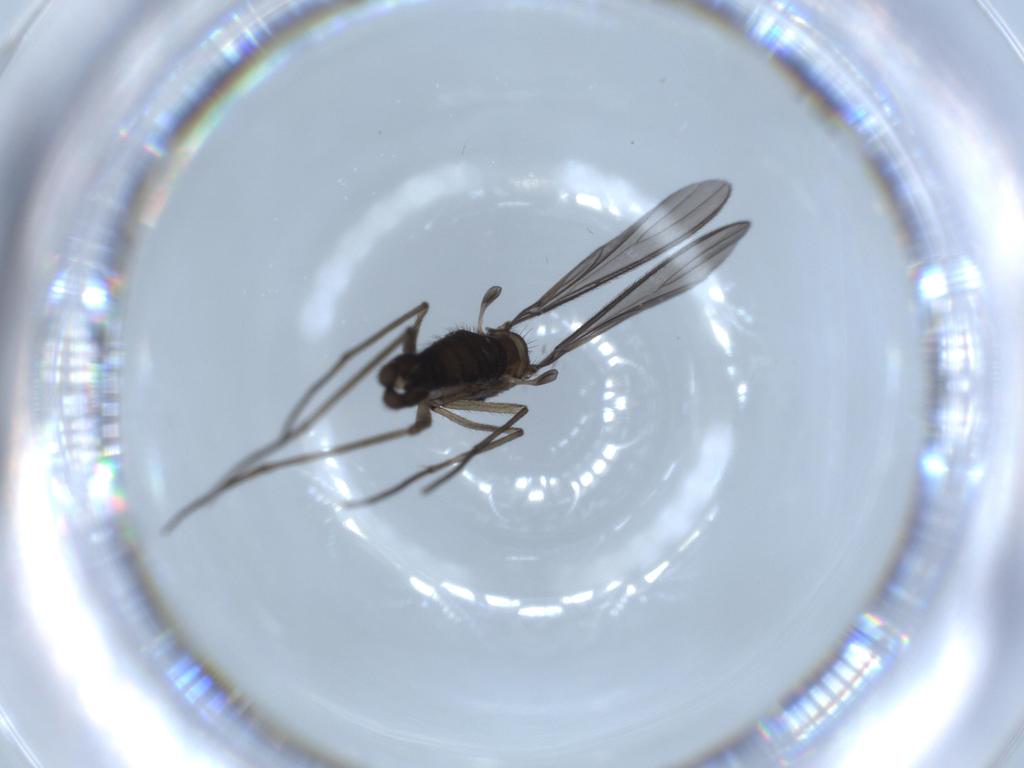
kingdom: Animalia
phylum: Arthropoda
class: Insecta
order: Diptera
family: Sciaridae
